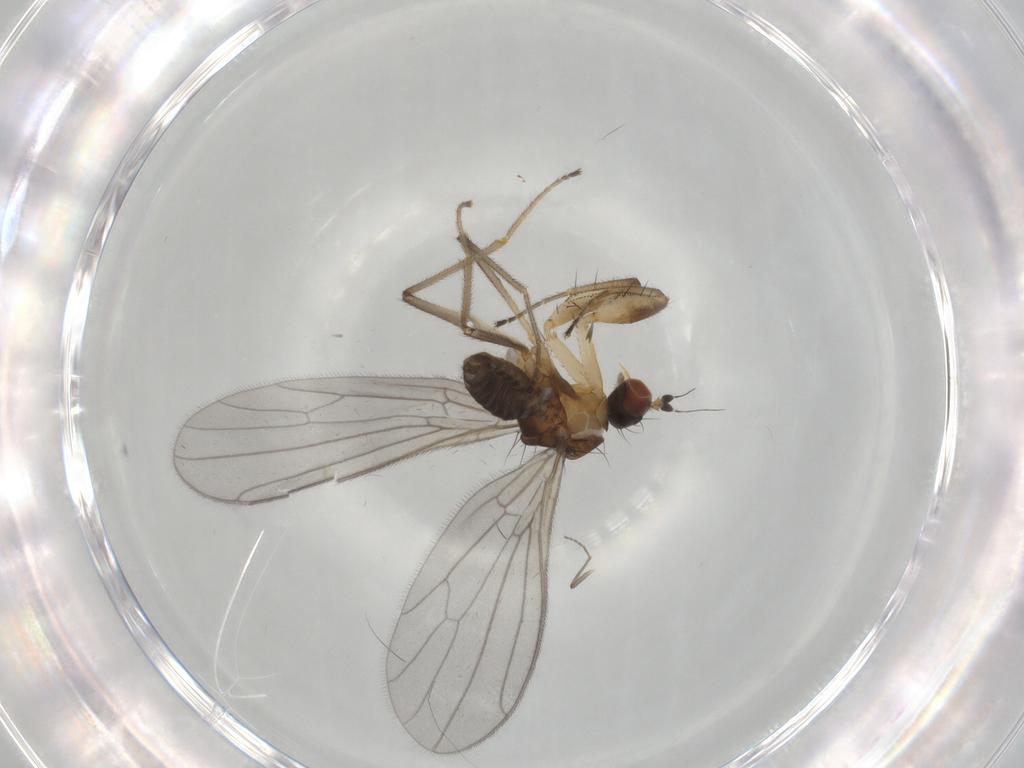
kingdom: Animalia
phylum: Arthropoda
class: Insecta
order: Diptera
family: Empididae
